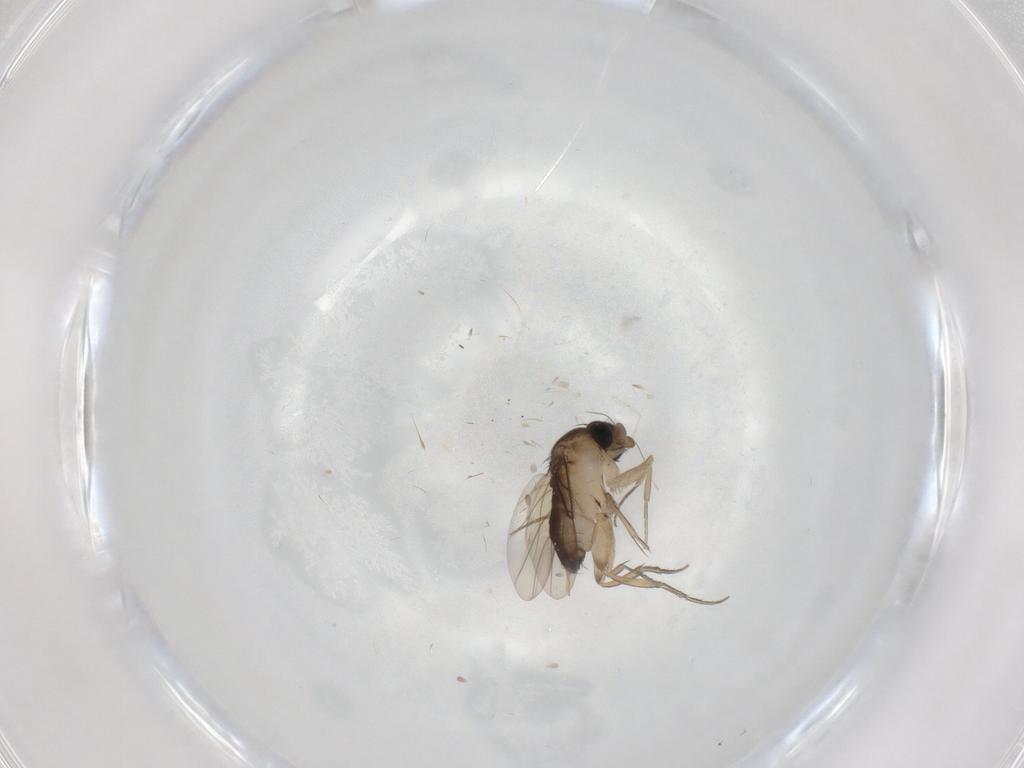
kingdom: Animalia
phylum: Arthropoda
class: Insecta
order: Diptera
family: Phoridae
